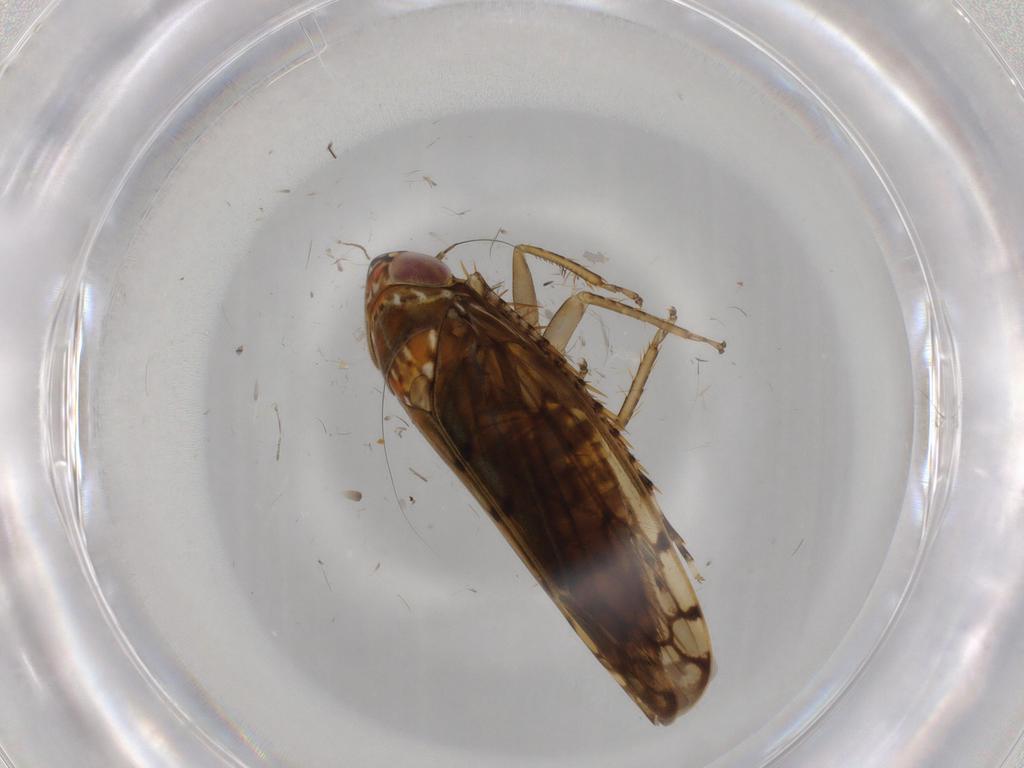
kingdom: Animalia
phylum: Arthropoda
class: Insecta
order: Hemiptera
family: Cicadellidae
